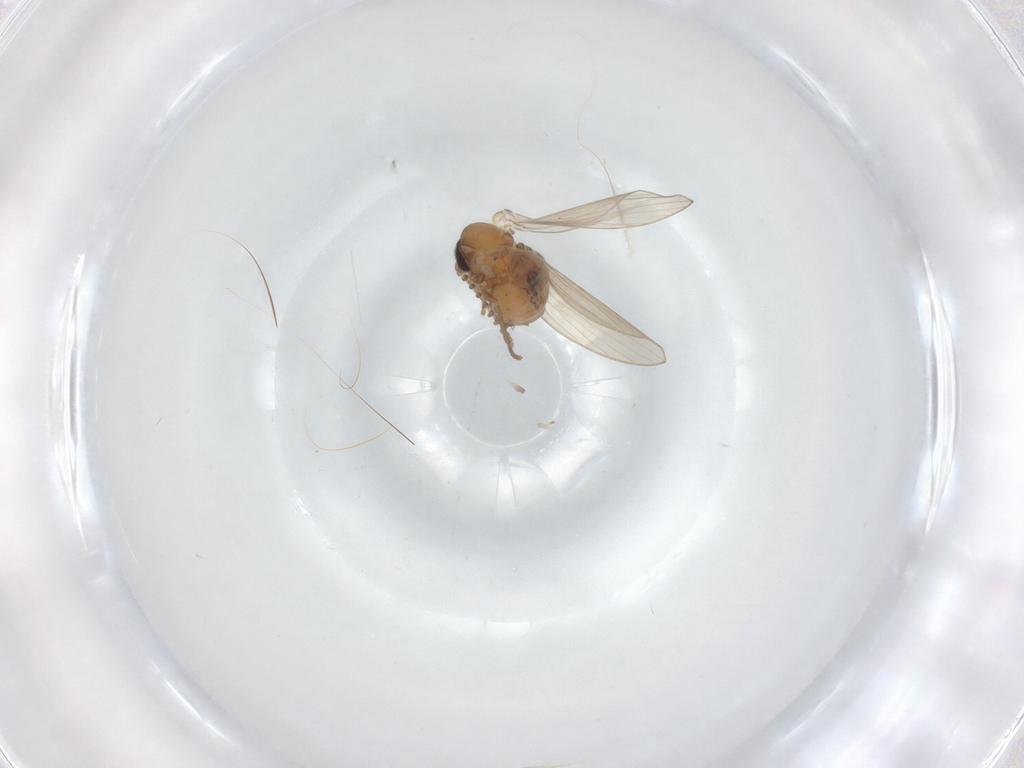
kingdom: Animalia
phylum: Arthropoda
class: Insecta
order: Diptera
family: Psychodidae
